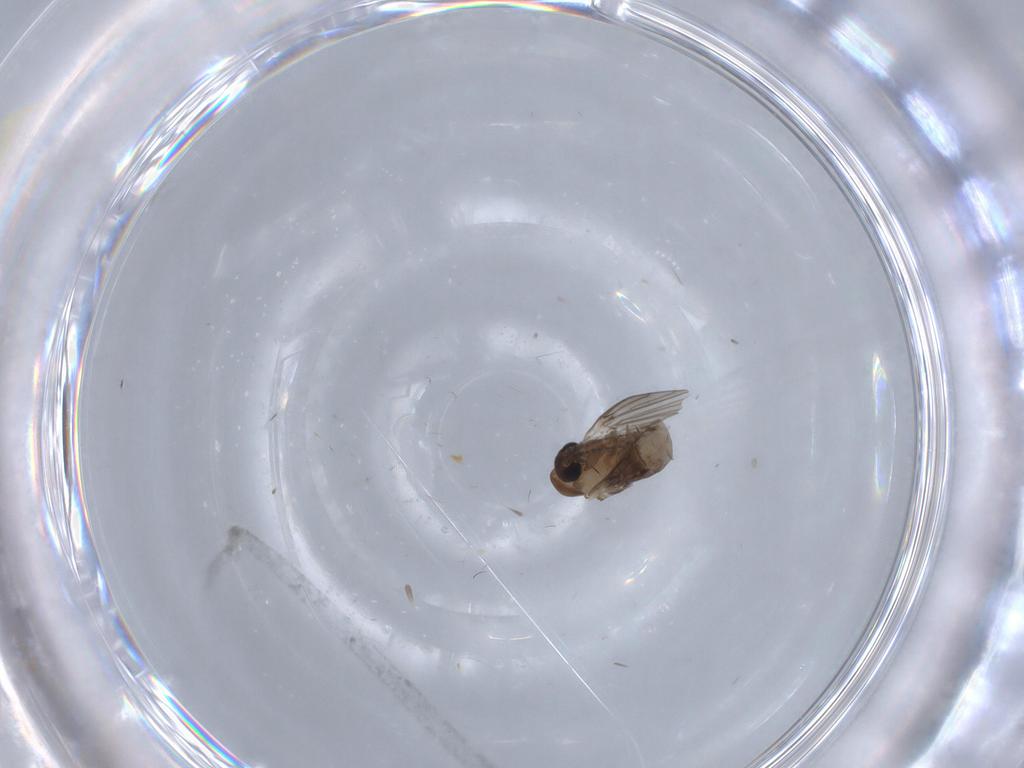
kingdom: Animalia
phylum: Arthropoda
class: Insecta
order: Diptera
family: Psychodidae
